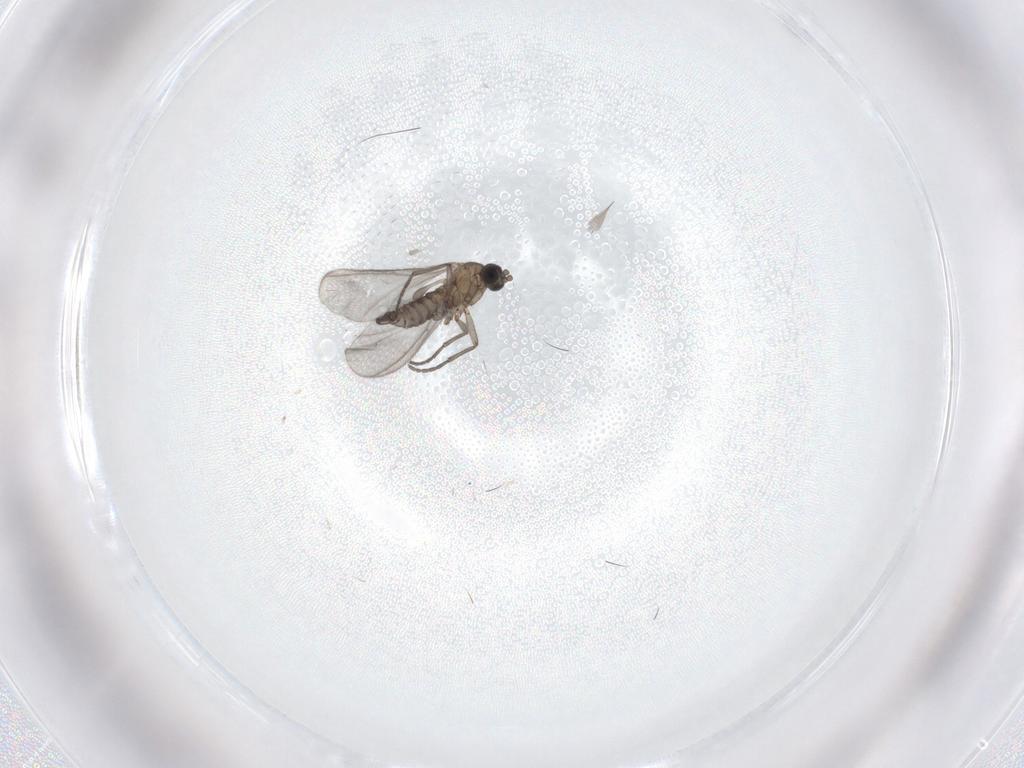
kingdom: Animalia
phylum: Arthropoda
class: Insecta
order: Diptera
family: Sciaridae
